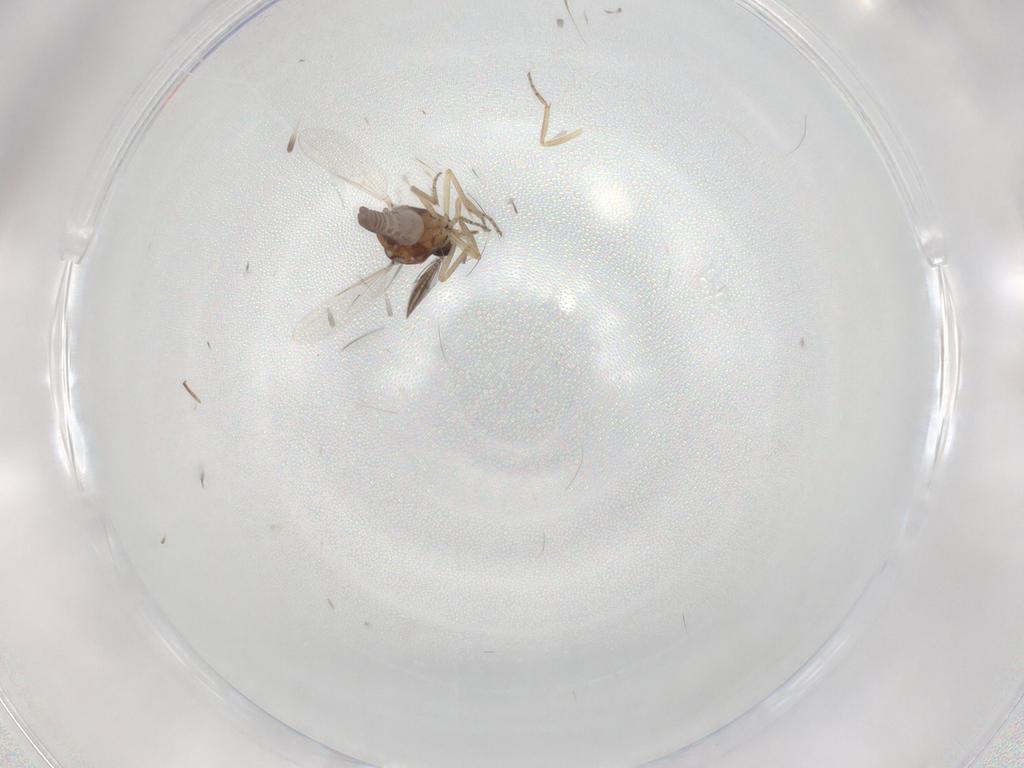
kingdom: Animalia
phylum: Arthropoda
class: Insecta
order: Diptera
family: Ceratopogonidae
